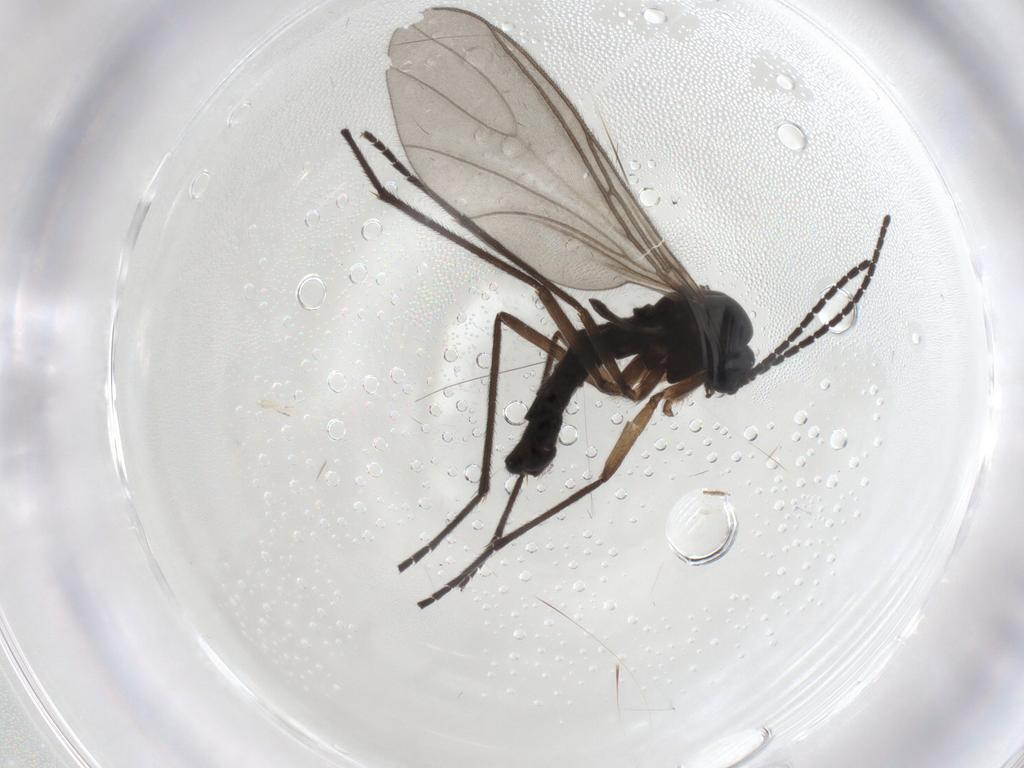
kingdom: Animalia
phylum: Arthropoda
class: Insecta
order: Diptera
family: Sciaridae
